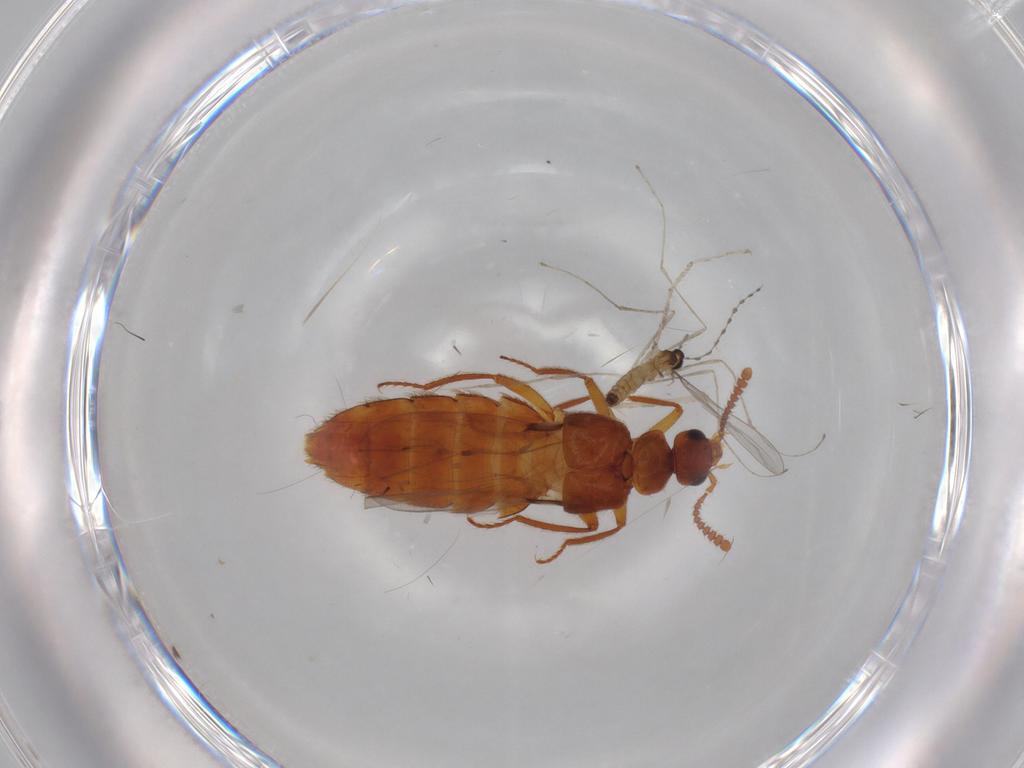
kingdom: Animalia
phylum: Arthropoda
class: Insecta
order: Diptera
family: Cecidomyiidae
